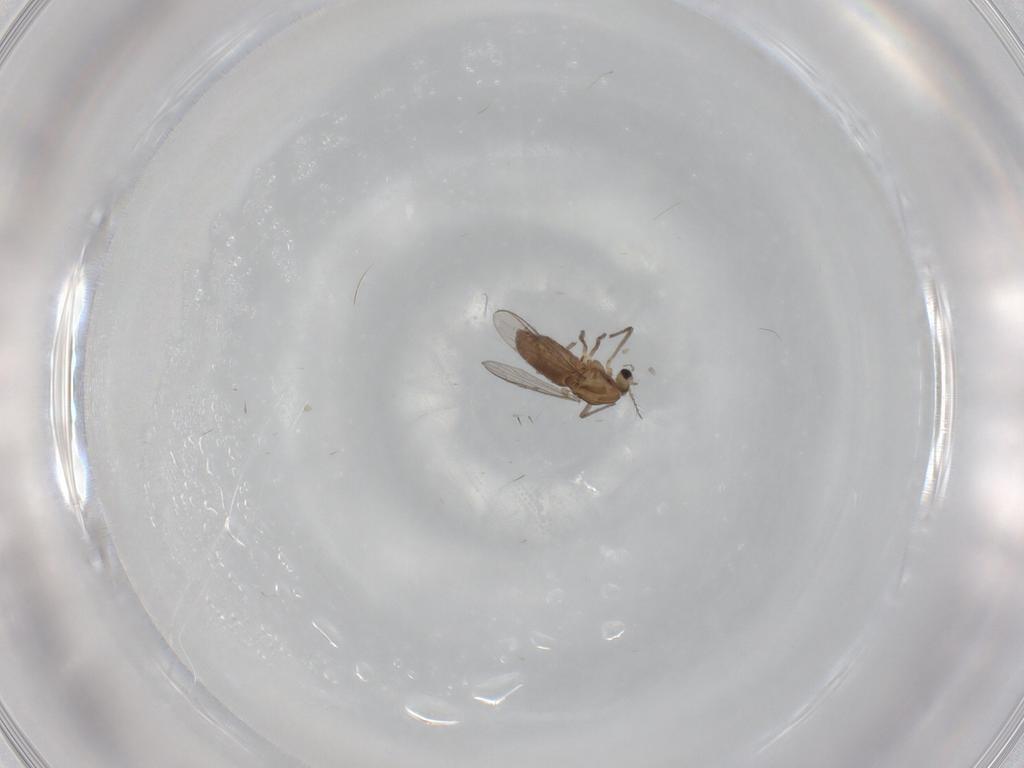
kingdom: Animalia
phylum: Arthropoda
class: Insecta
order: Diptera
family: Chironomidae
